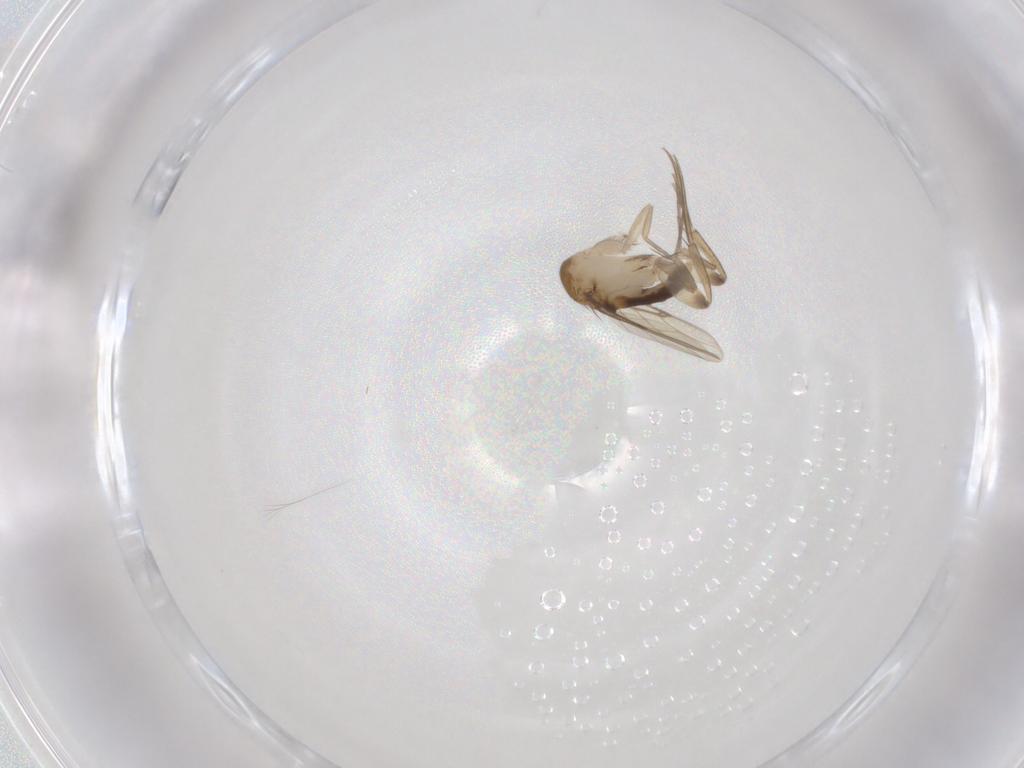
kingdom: Animalia
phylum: Arthropoda
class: Insecta
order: Diptera
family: Phoridae
